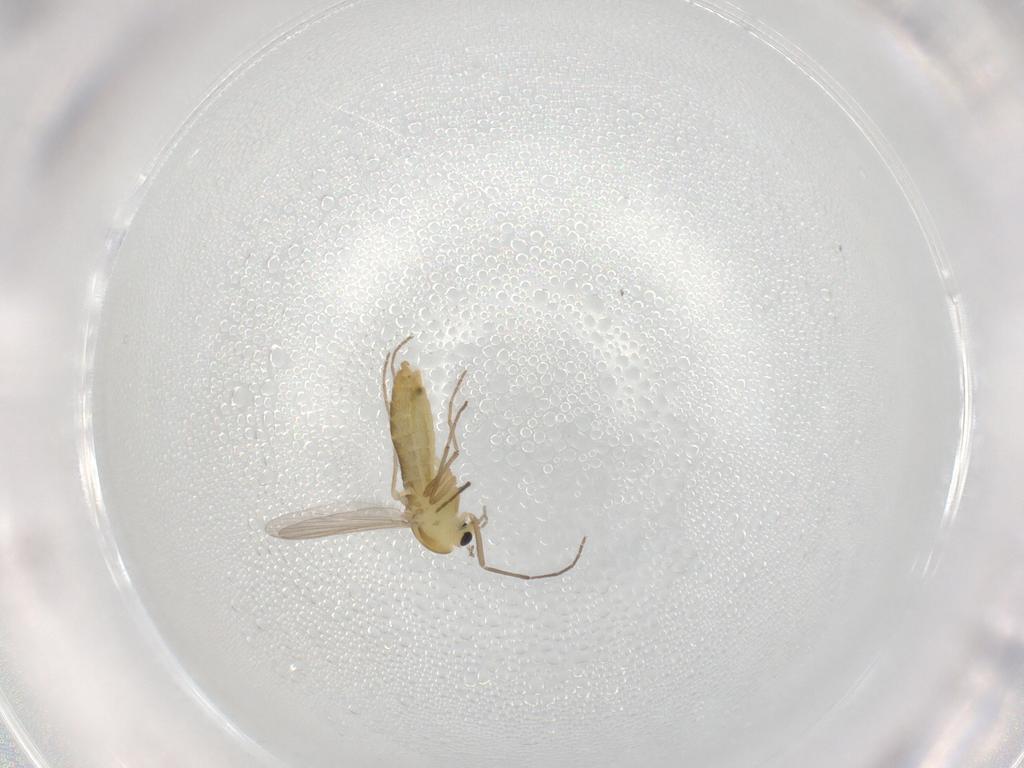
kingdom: Animalia
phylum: Arthropoda
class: Insecta
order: Diptera
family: Chironomidae
